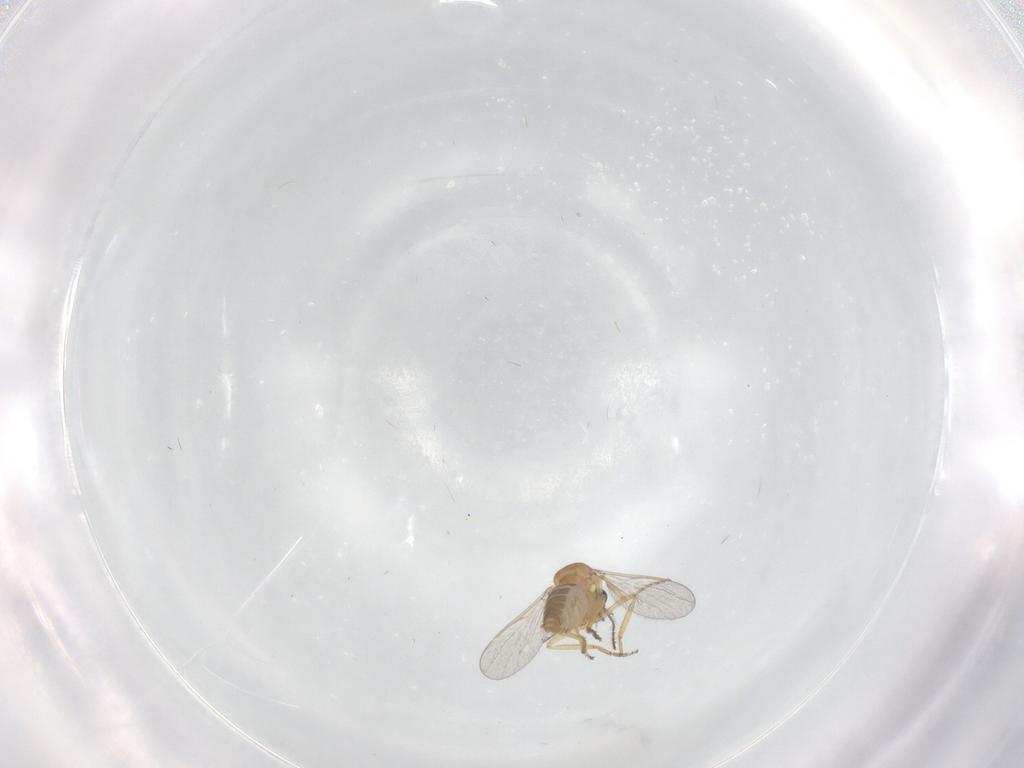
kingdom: Animalia
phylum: Arthropoda
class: Insecta
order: Diptera
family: Ceratopogonidae
